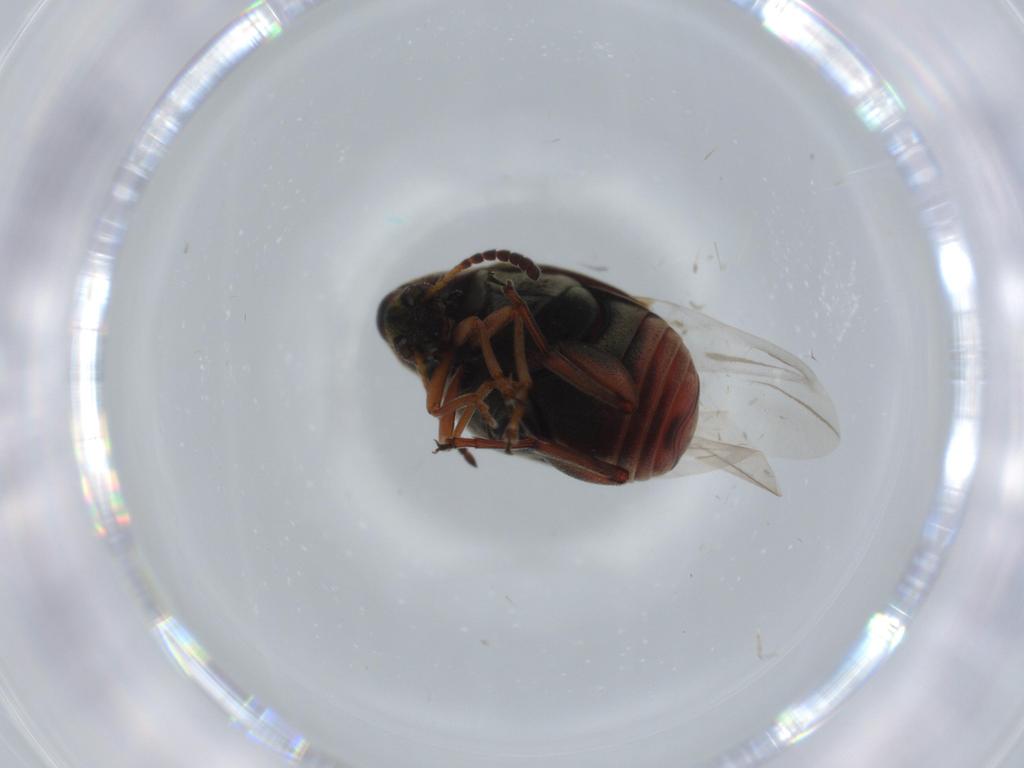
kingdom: Animalia
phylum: Arthropoda
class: Insecta
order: Coleoptera
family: Chrysomelidae
